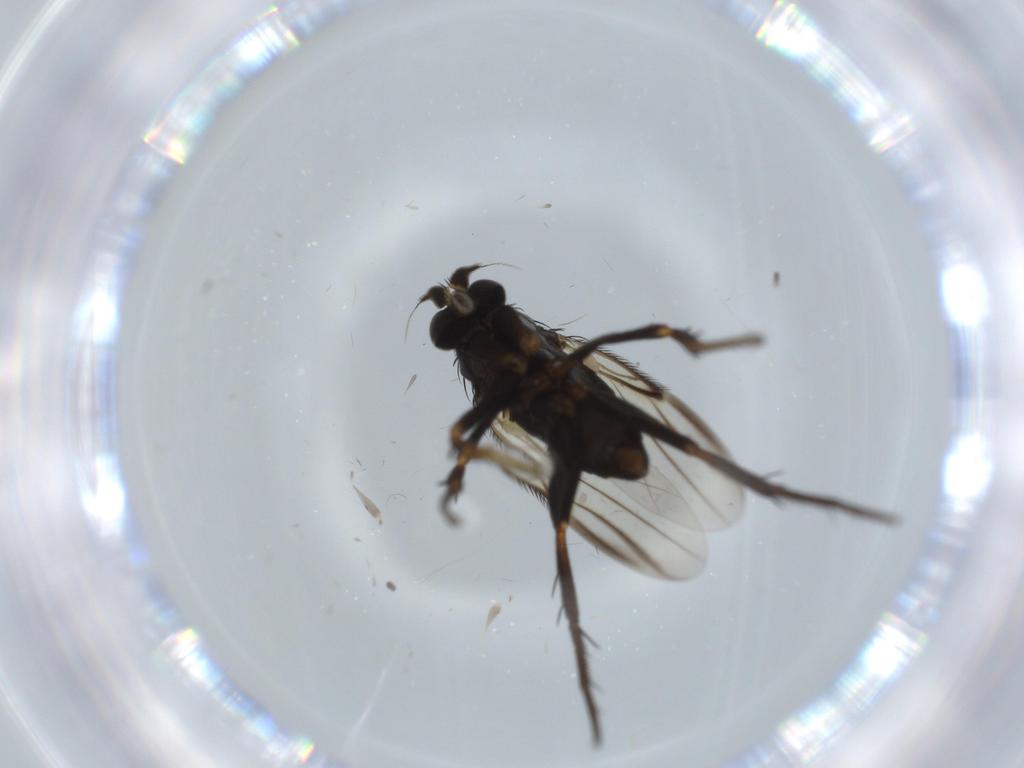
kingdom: Animalia
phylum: Arthropoda
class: Insecta
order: Diptera
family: Phoridae
